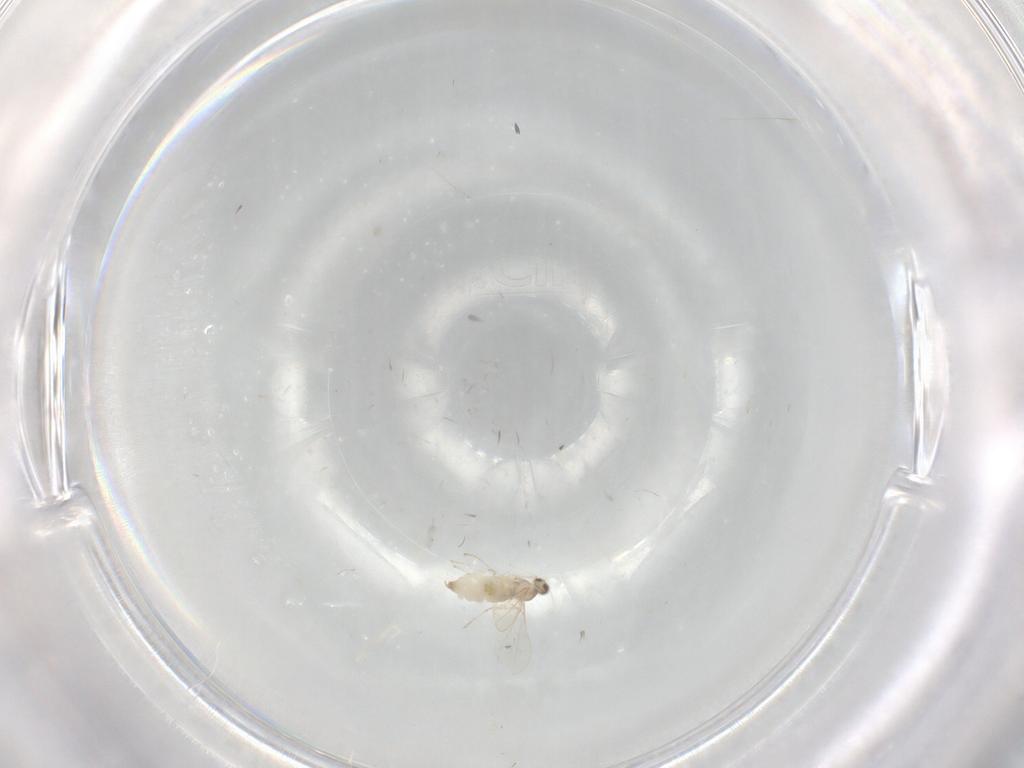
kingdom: Animalia
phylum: Arthropoda
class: Insecta
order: Diptera
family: Cecidomyiidae
